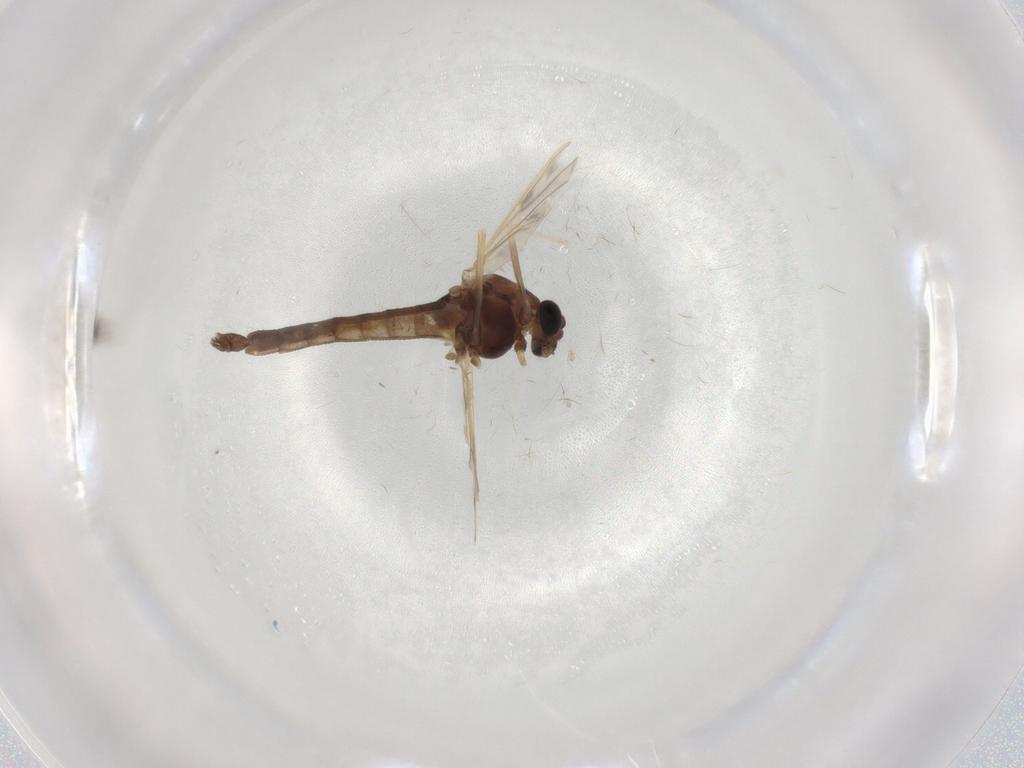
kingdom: Animalia
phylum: Arthropoda
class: Insecta
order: Diptera
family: Chironomidae
